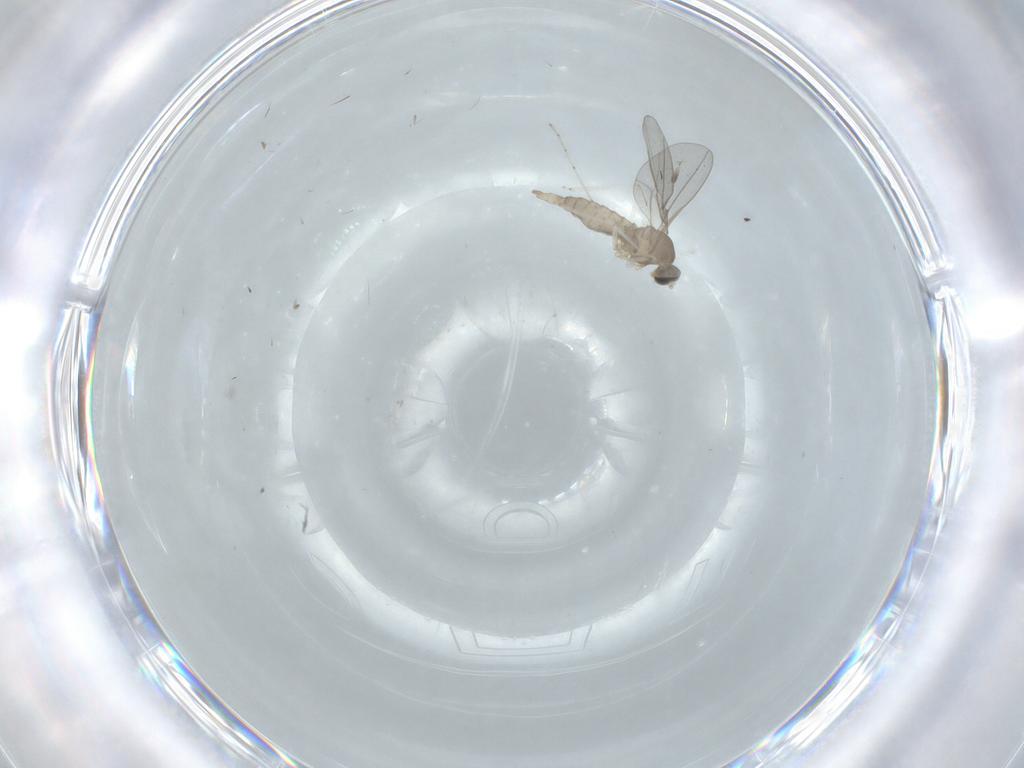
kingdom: Animalia
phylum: Arthropoda
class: Insecta
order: Diptera
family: Cecidomyiidae
